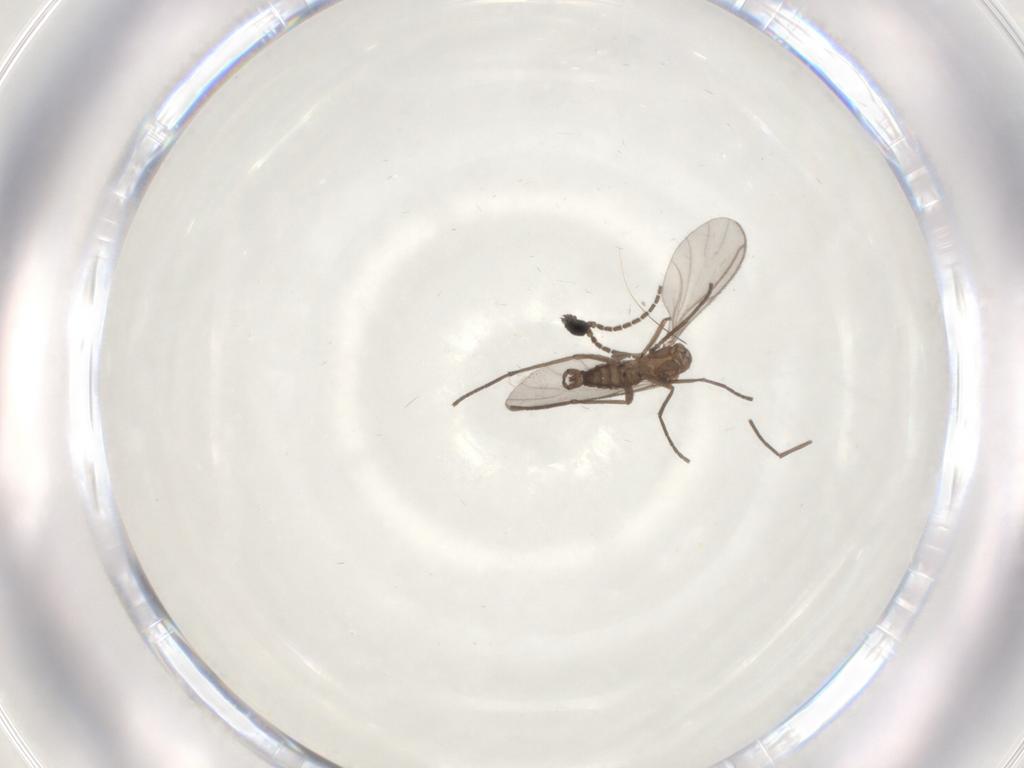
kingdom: Animalia
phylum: Arthropoda
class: Insecta
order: Diptera
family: Sciaridae
